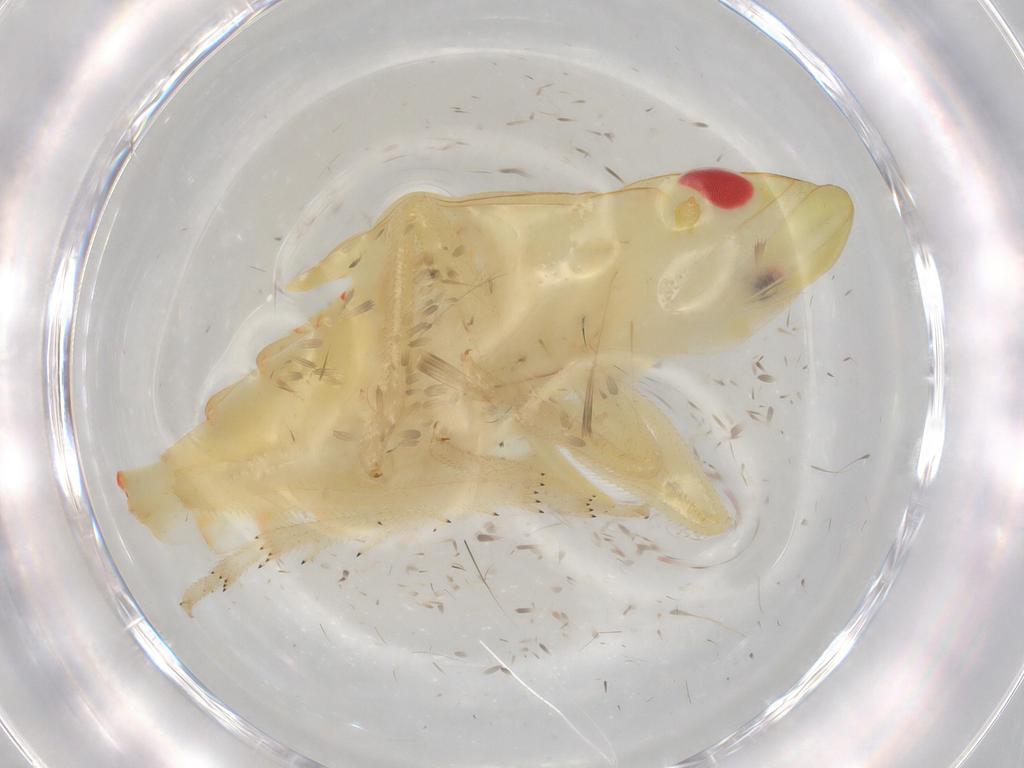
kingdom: Animalia
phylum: Arthropoda
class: Insecta
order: Hemiptera
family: Tropiduchidae
